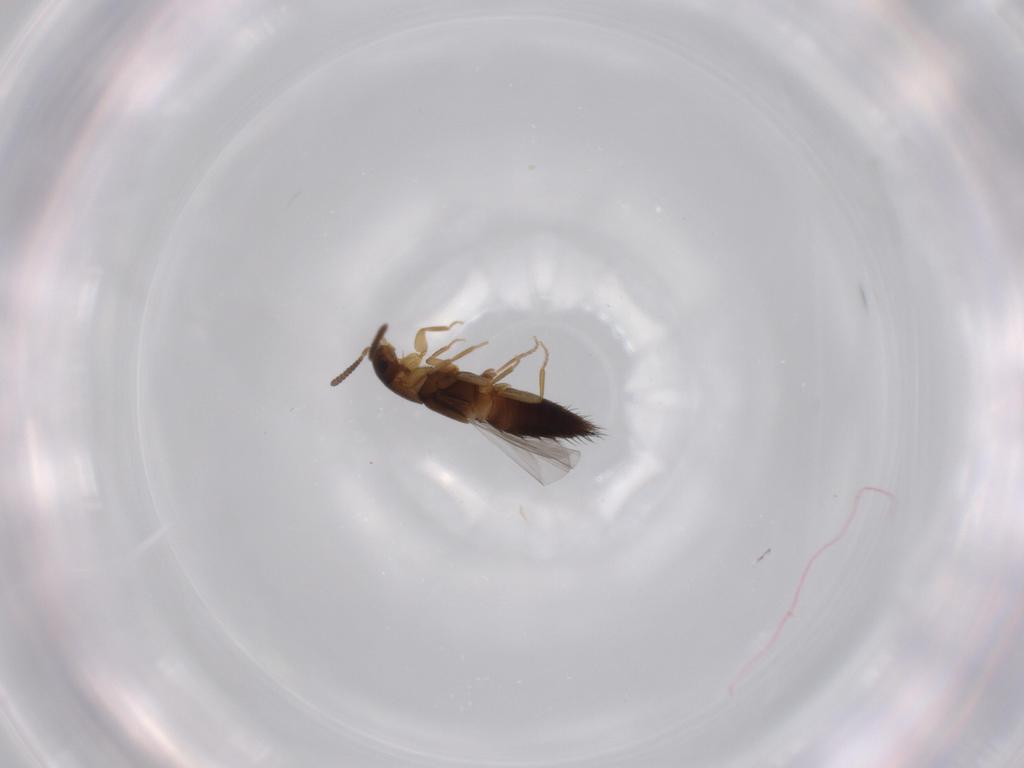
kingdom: Animalia
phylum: Arthropoda
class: Insecta
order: Coleoptera
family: Staphylinidae
